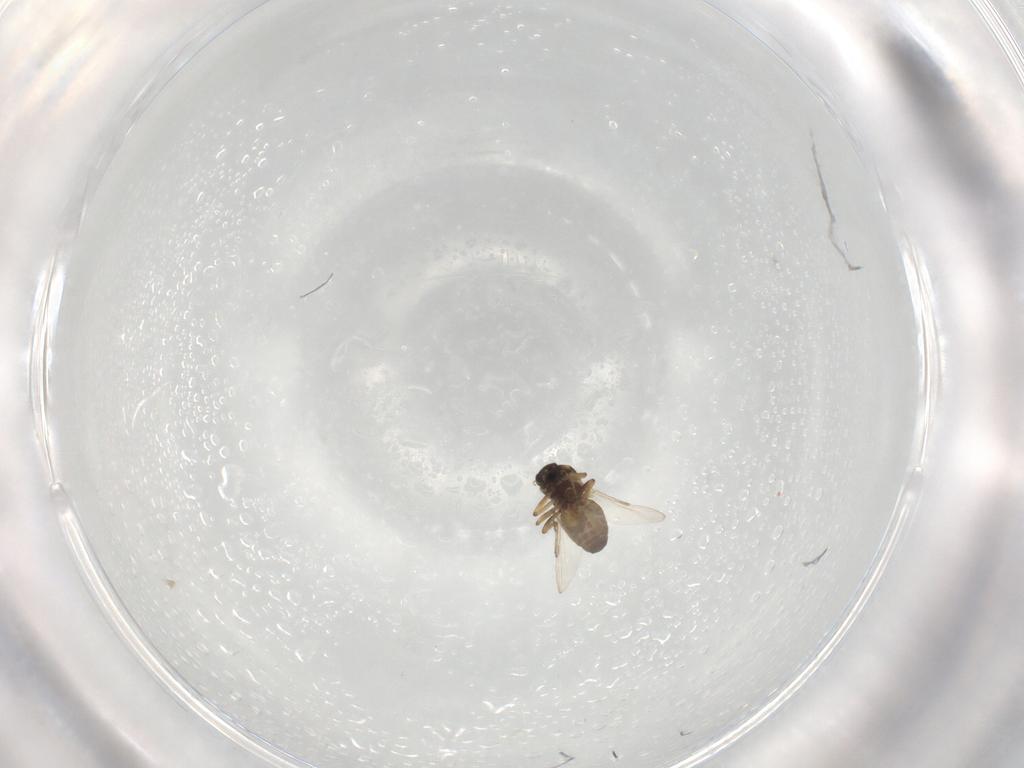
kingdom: Animalia
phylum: Arthropoda
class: Insecta
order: Diptera
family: Ceratopogonidae
